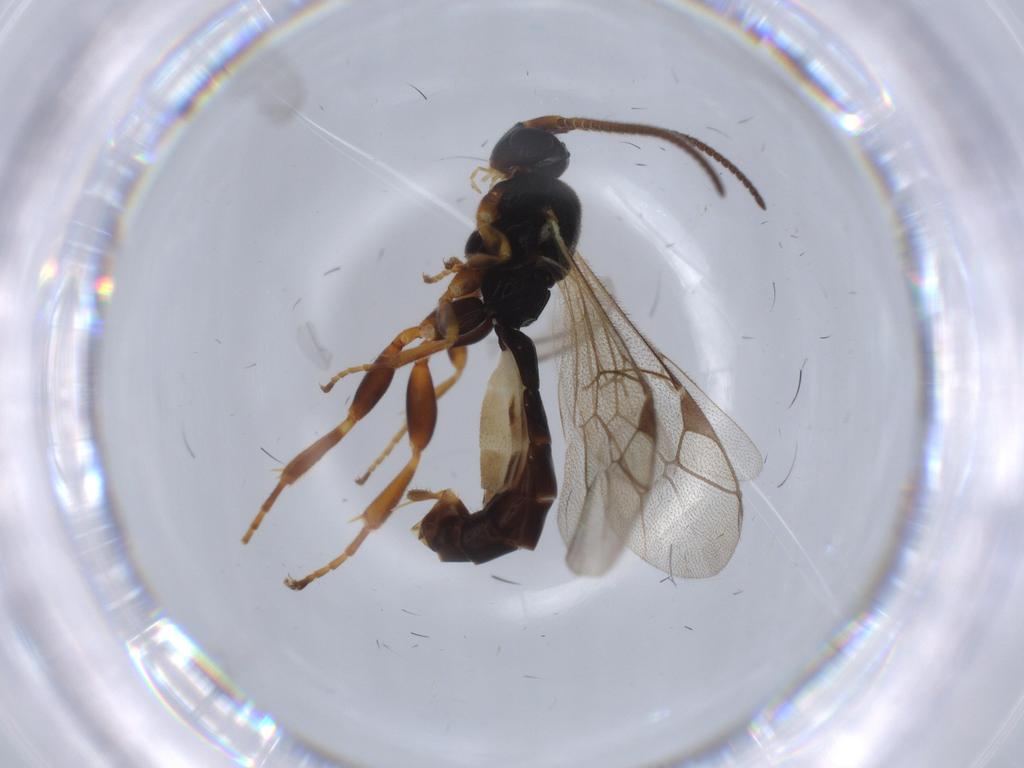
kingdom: Animalia
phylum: Arthropoda
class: Insecta
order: Hymenoptera
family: Ichneumonidae
